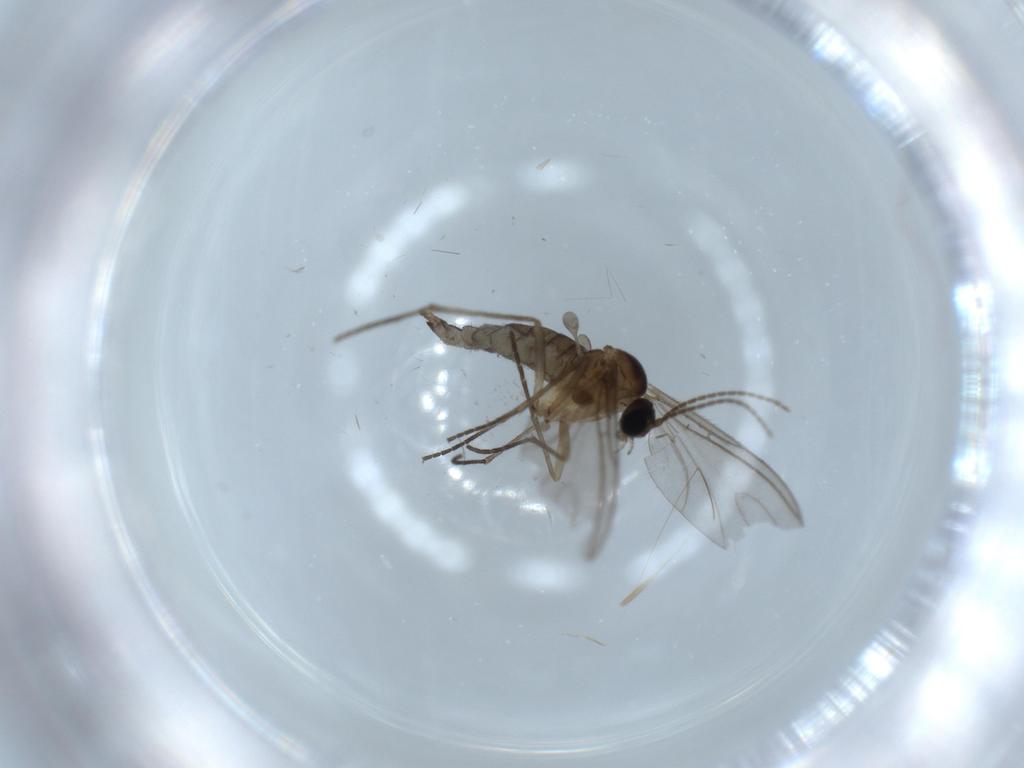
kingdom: Animalia
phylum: Arthropoda
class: Insecta
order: Diptera
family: Sciaridae
